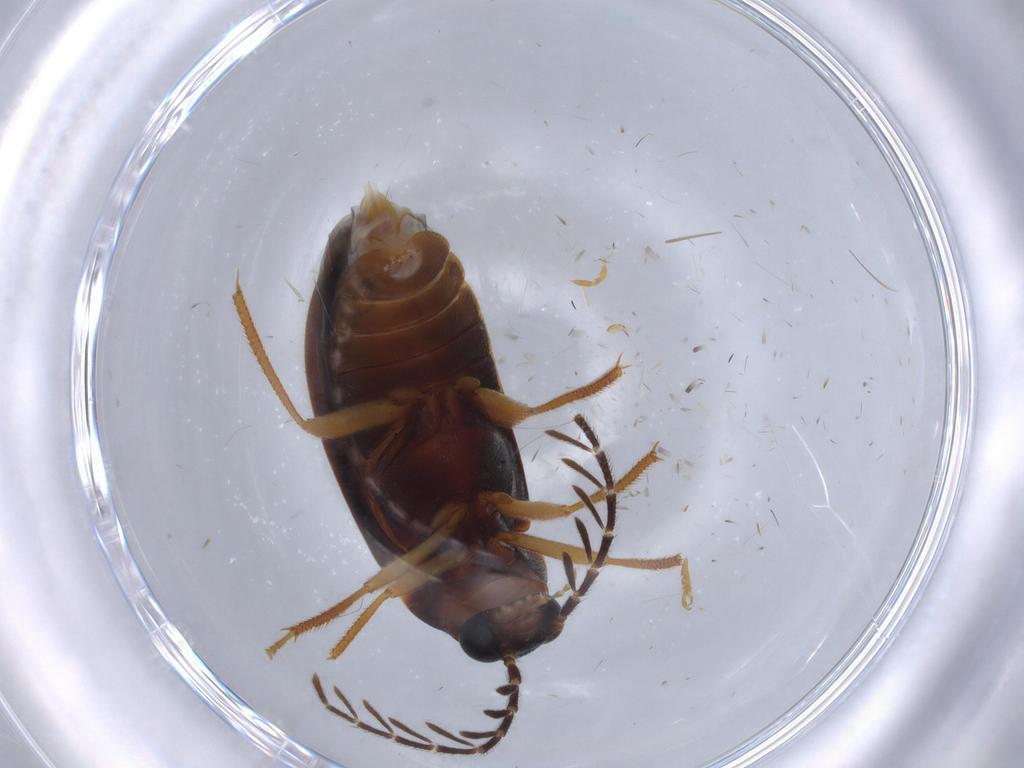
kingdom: Animalia
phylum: Arthropoda
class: Insecta
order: Coleoptera
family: Ptilodactylidae
